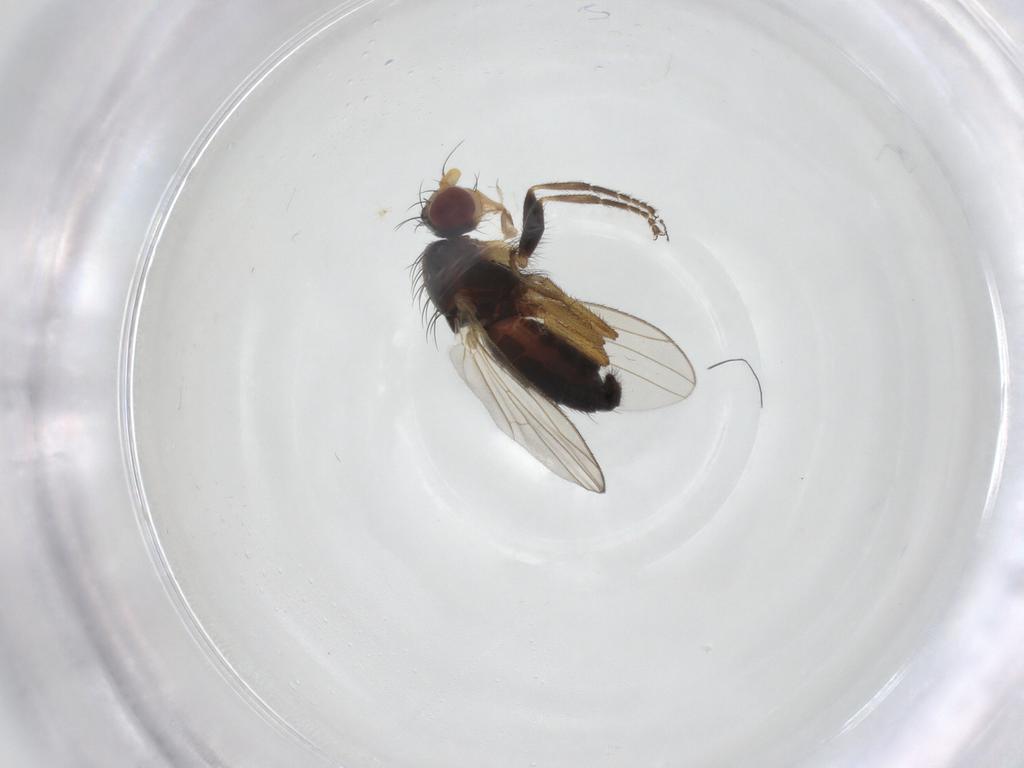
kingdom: Animalia
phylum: Arthropoda
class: Insecta
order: Diptera
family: Heleomyzidae
